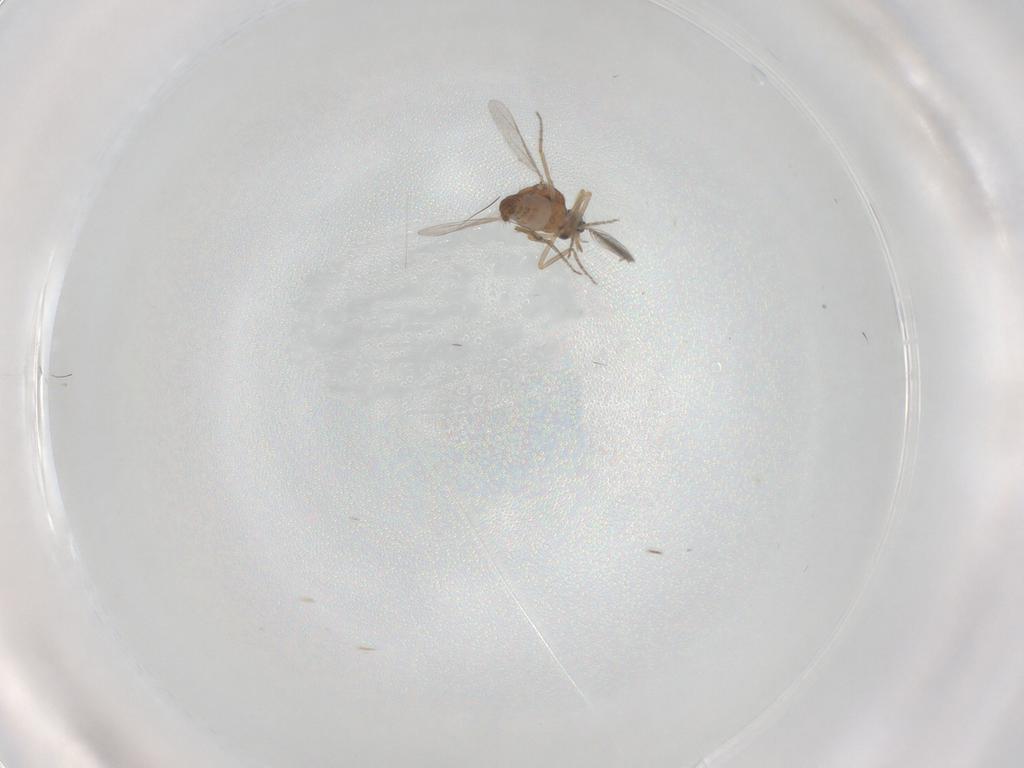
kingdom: Animalia
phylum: Arthropoda
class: Insecta
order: Diptera
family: Ceratopogonidae
